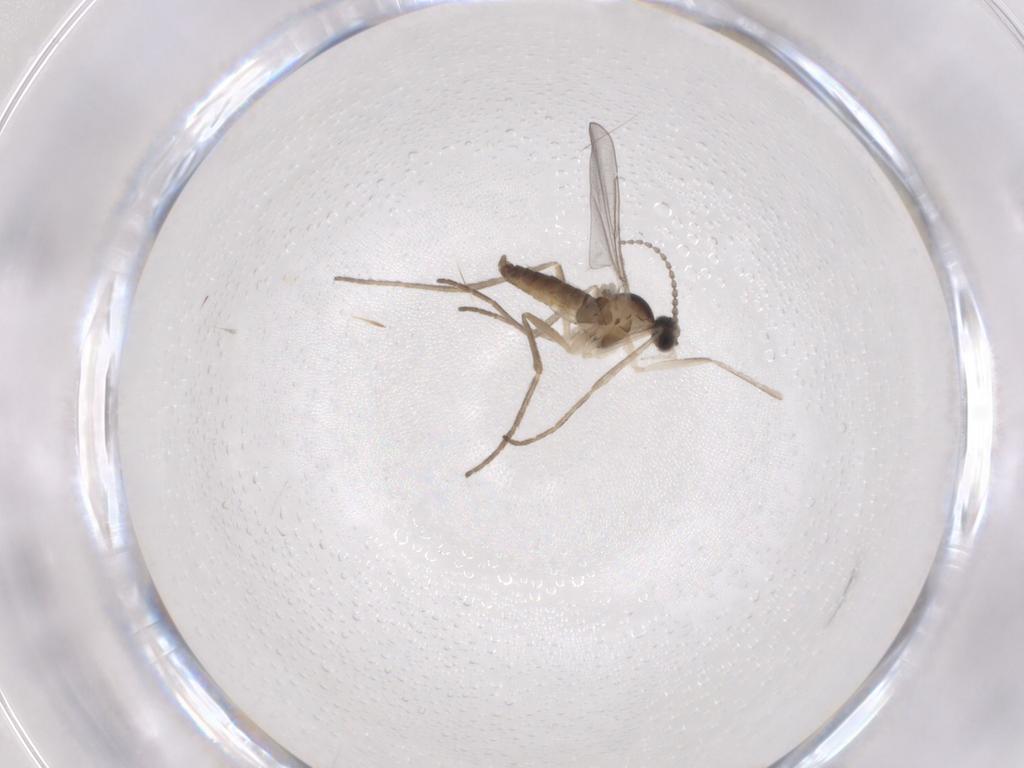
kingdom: Animalia
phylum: Arthropoda
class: Insecta
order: Diptera
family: Cecidomyiidae
